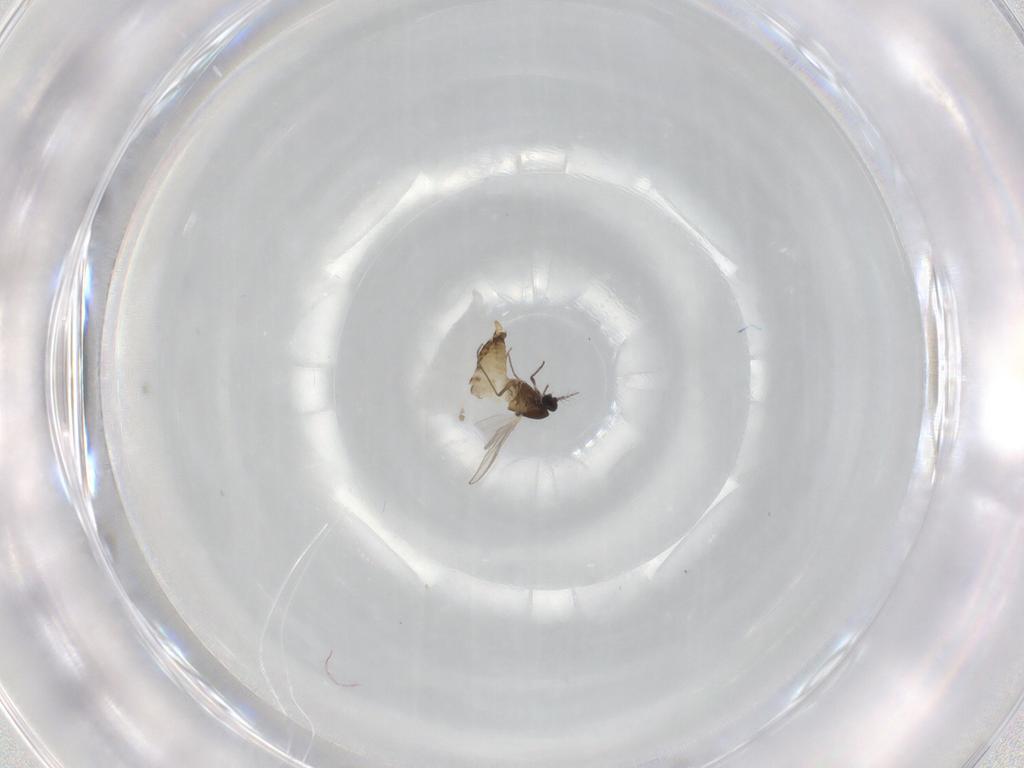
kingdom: Animalia
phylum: Arthropoda
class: Insecta
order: Diptera
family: Chironomidae
